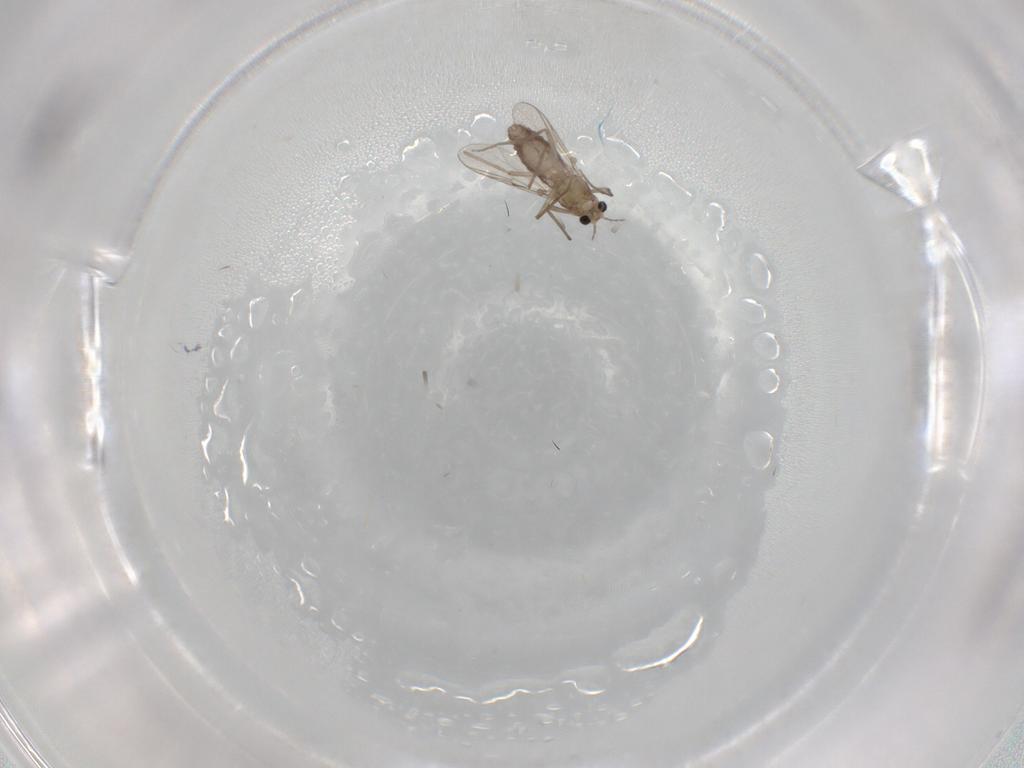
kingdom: Animalia
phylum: Arthropoda
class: Insecta
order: Diptera
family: Chironomidae
